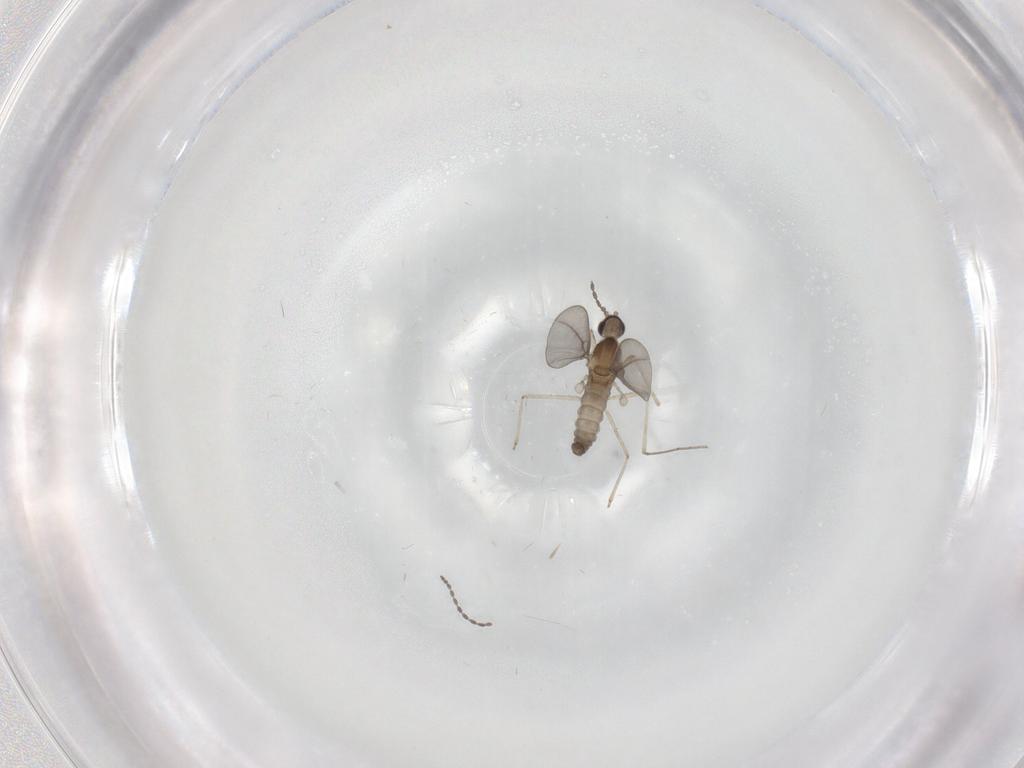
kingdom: Animalia
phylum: Arthropoda
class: Insecta
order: Diptera
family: Cecidomyiidae
